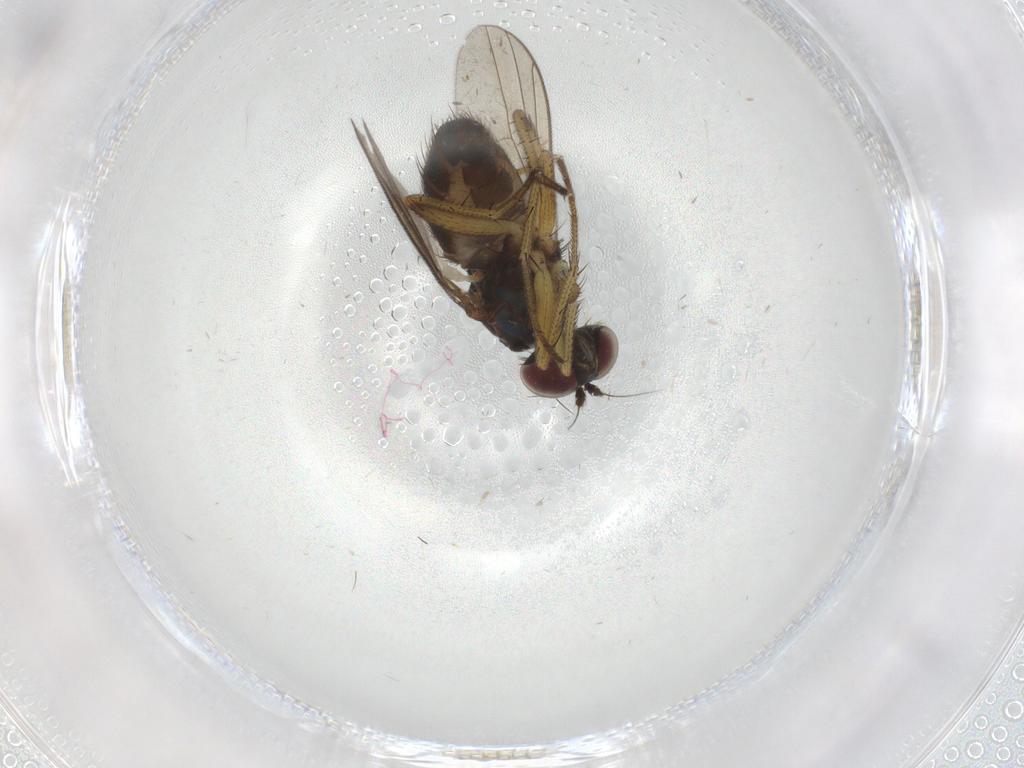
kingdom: Animalia
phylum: Arthropoda
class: Insecta
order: Diptera
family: Dolichopodidae
